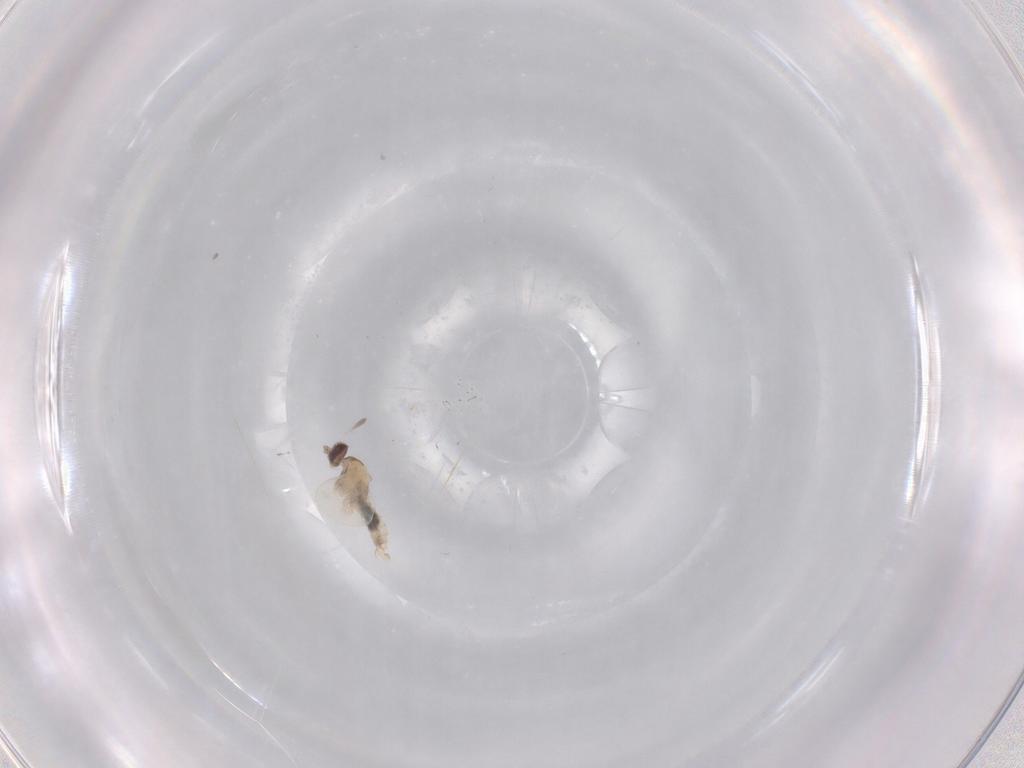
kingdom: Animalia
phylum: Arthropoda
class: Insecta
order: Diptera
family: Cecidomyiidae
